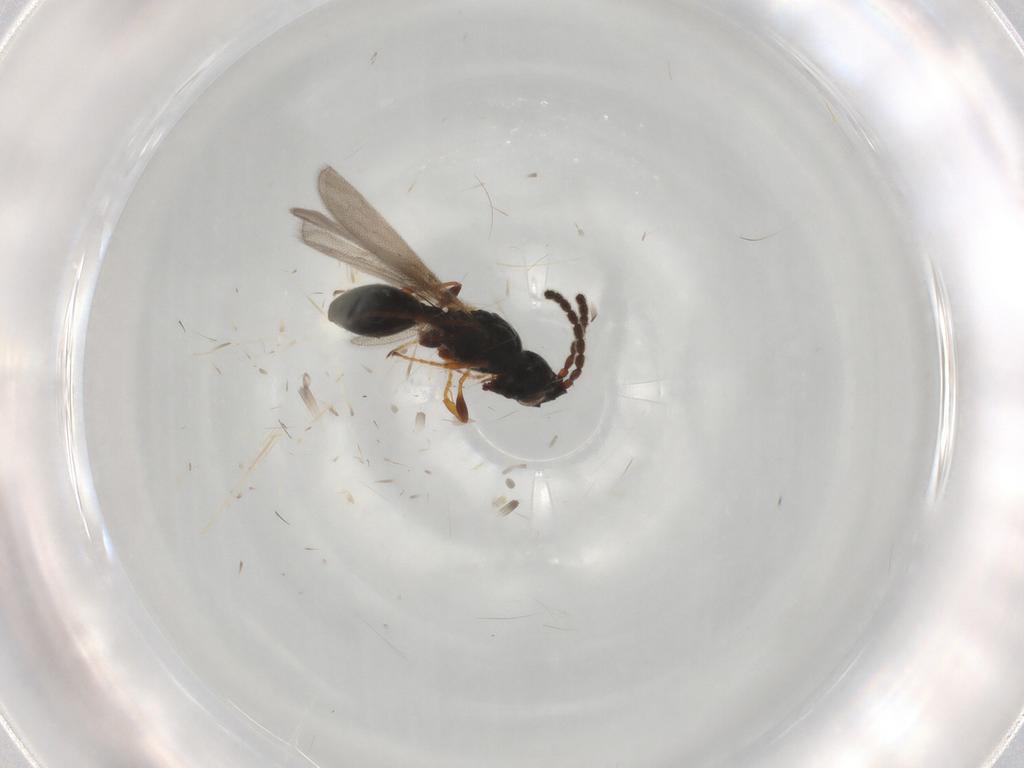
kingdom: Animalia
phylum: Arthropoda
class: Insecta
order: Hymenoptera
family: Diapriidae
